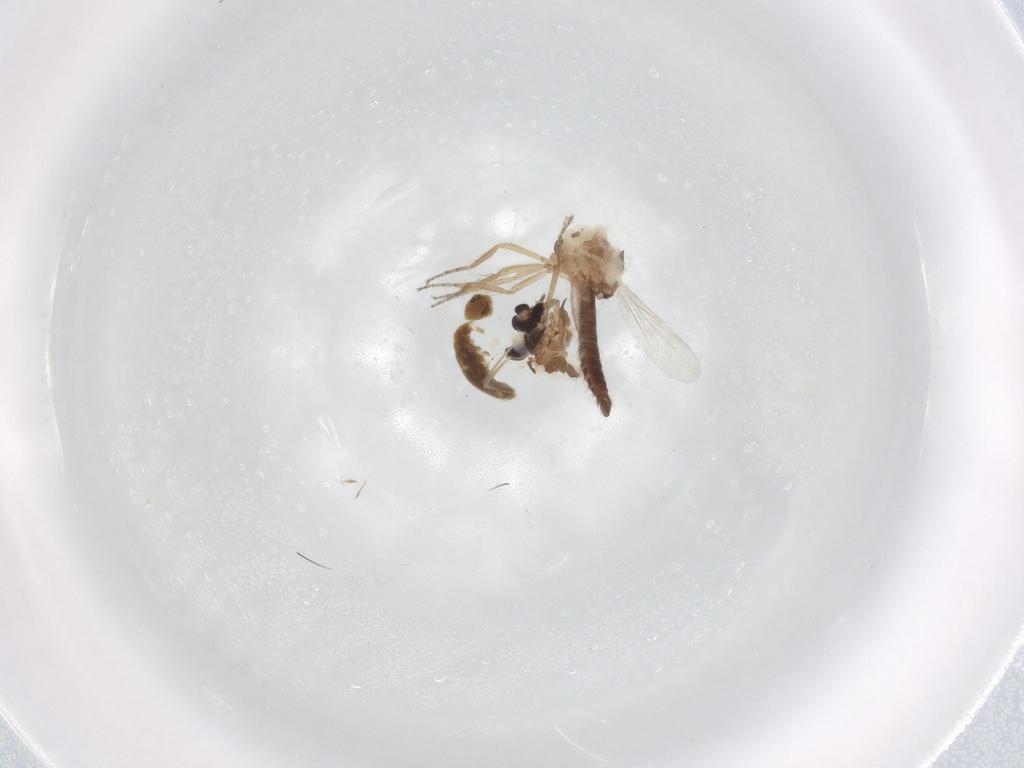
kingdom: Animalia
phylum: Arthropoda
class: Insecta
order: Diptera
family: Ceratopogonidae
